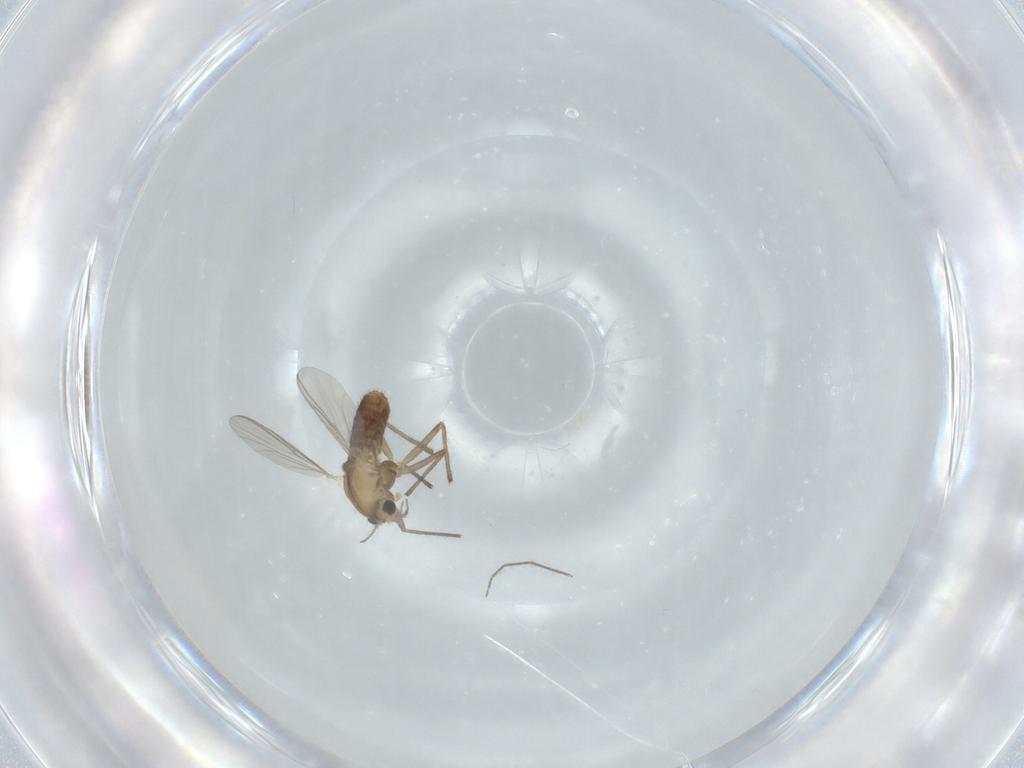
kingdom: Animalia
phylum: Arthropoda
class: Insecta
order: Diptera
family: Chironomidae
